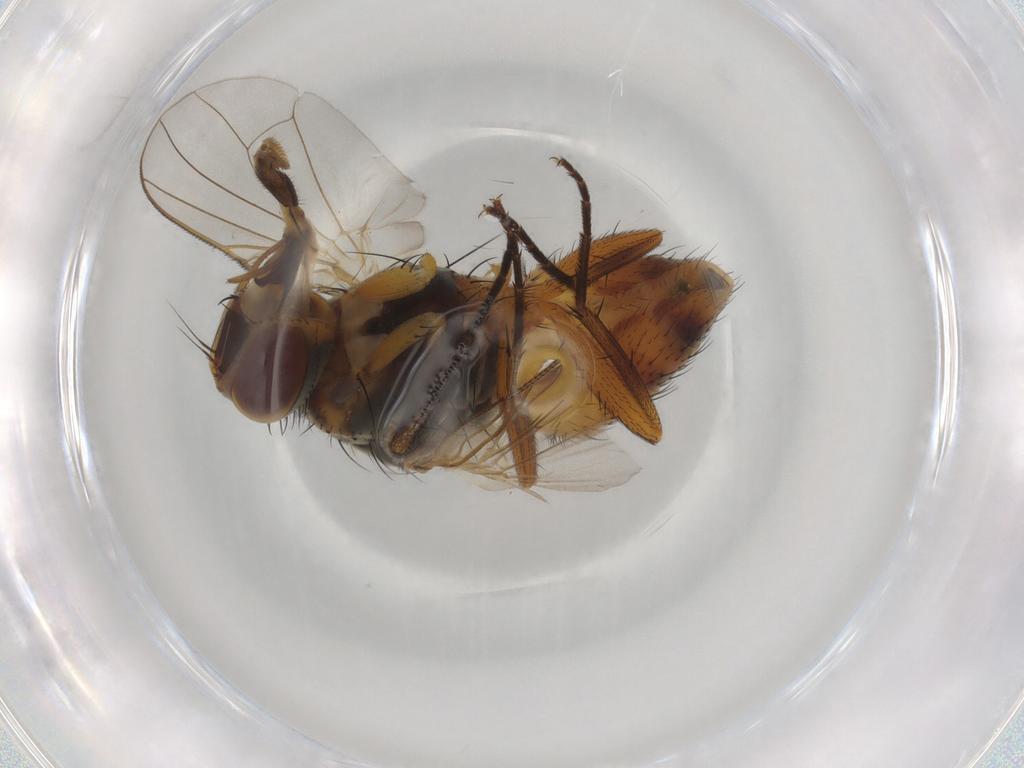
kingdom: Animalia
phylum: Arthropoda
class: Insecta
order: Diptera
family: Muscidae
